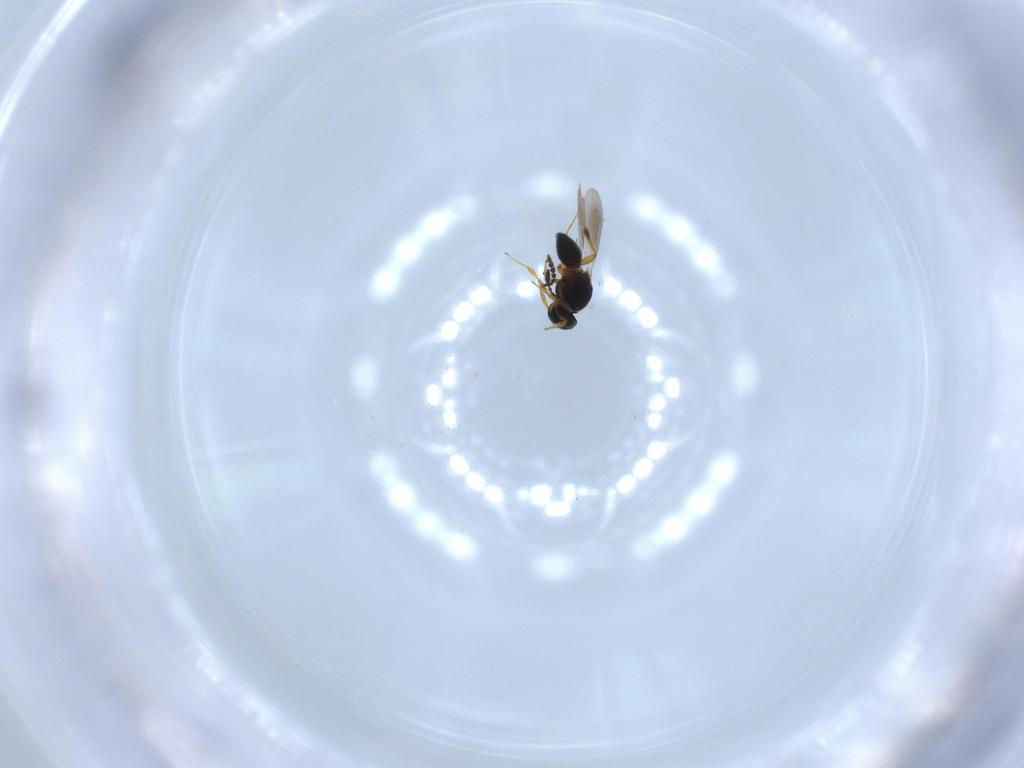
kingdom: Animalia
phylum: Arthropoda
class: Insecta
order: Hymenoptera
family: Platygastridae
